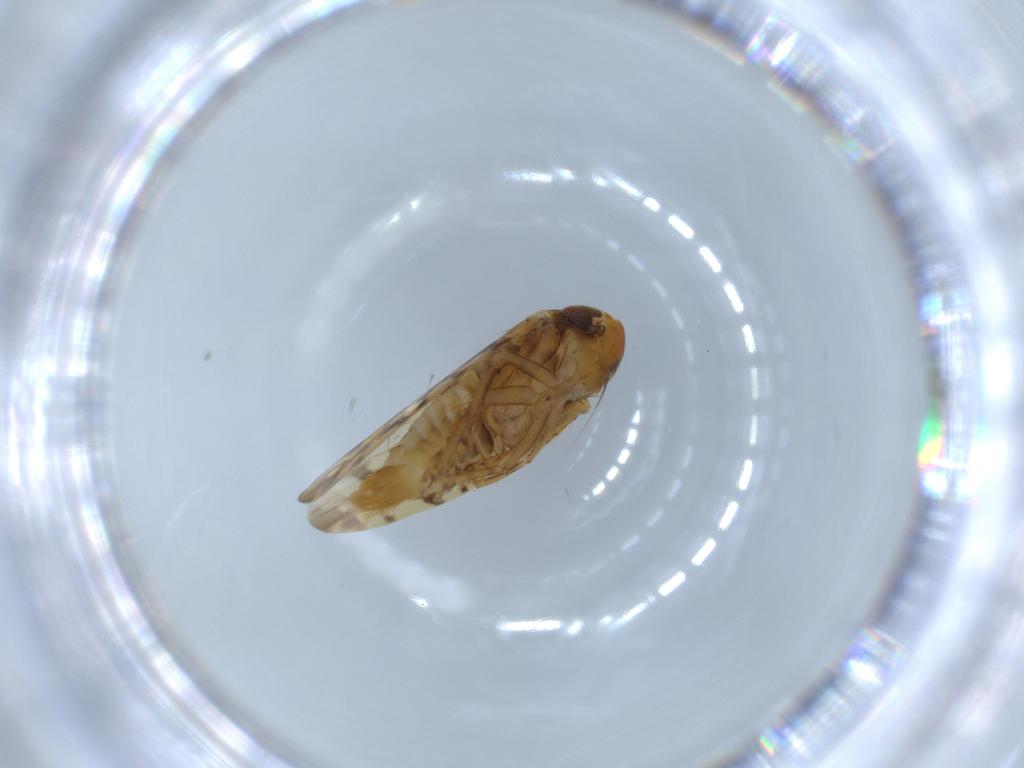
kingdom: Animalia
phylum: Arthropoda
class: Insecta
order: Hemiptera
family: Cicadellidae
